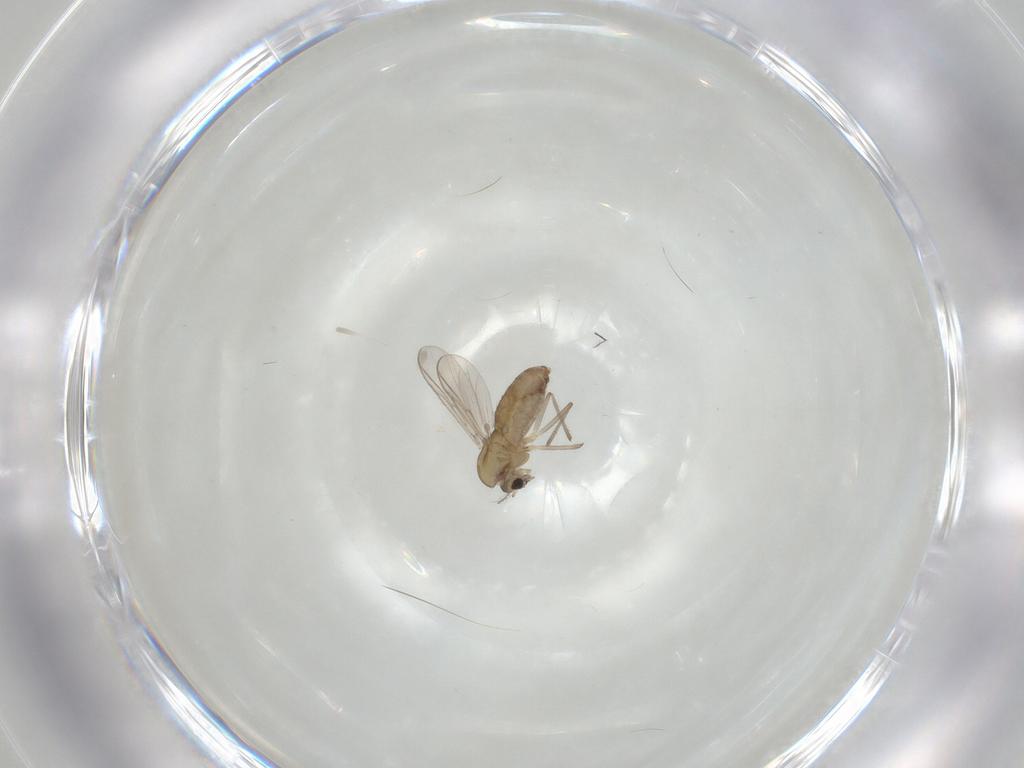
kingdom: Animalia
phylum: Arthropoda
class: Insecta
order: Diptera
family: Chironomidae
